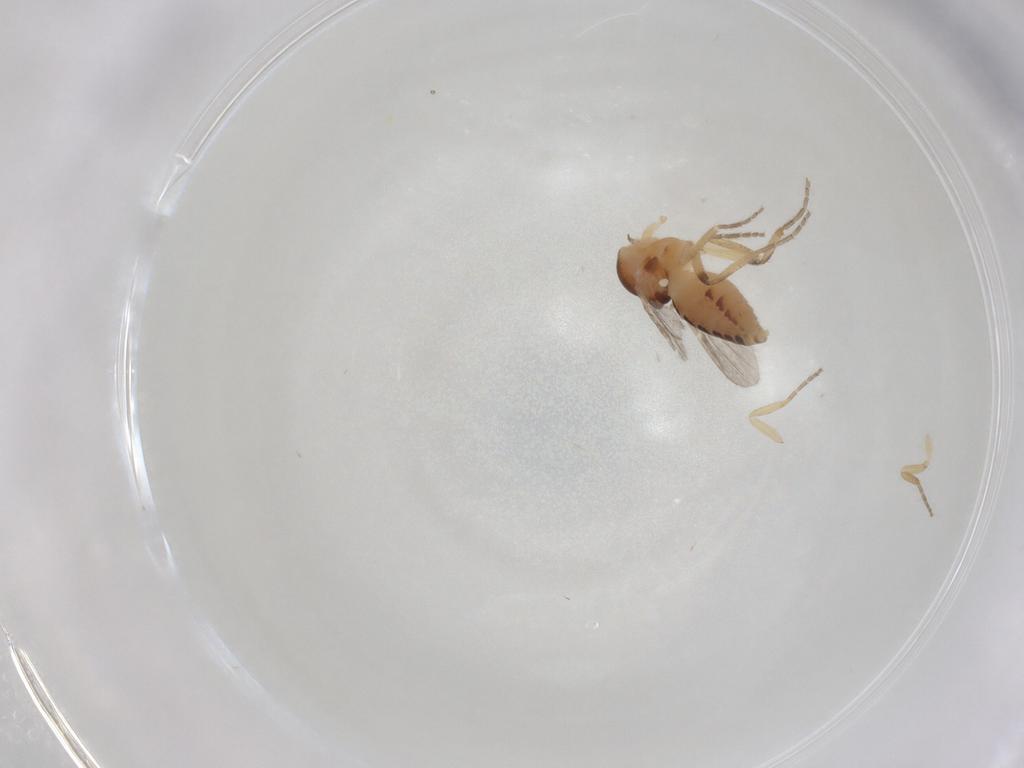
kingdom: Animalia
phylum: Arthropoda
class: Insecta
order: Diptera
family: Ceratopogonidae
